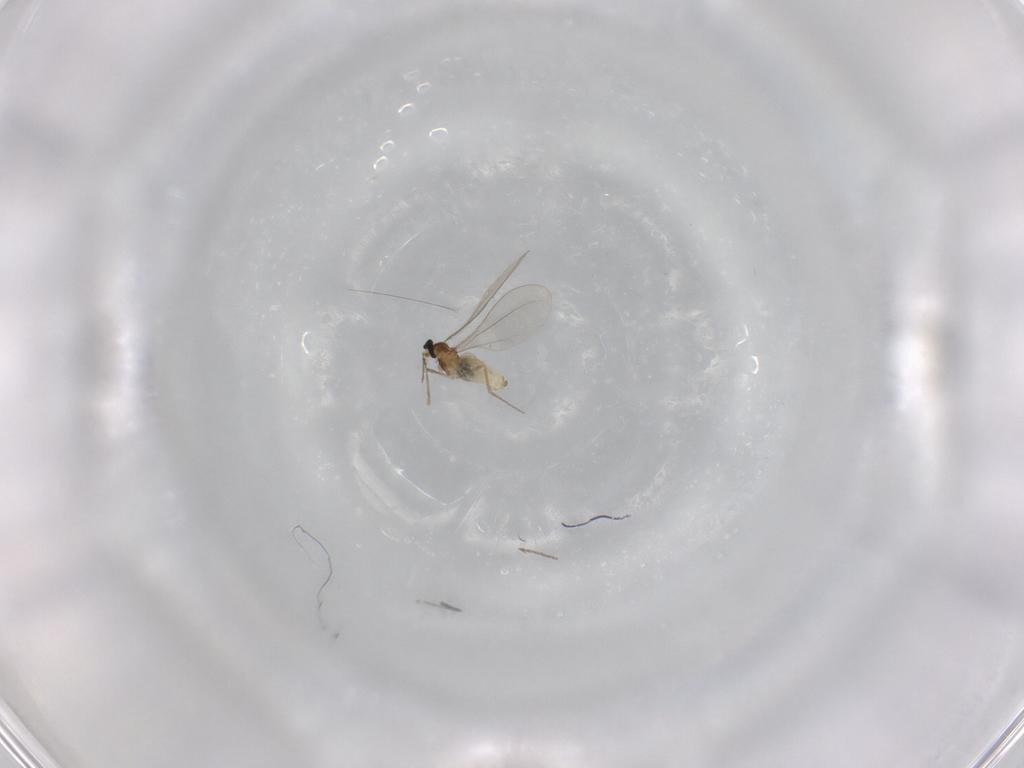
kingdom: Animalia
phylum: Arthropoda
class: Insecta
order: Diptera
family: Cecidomyiidae
